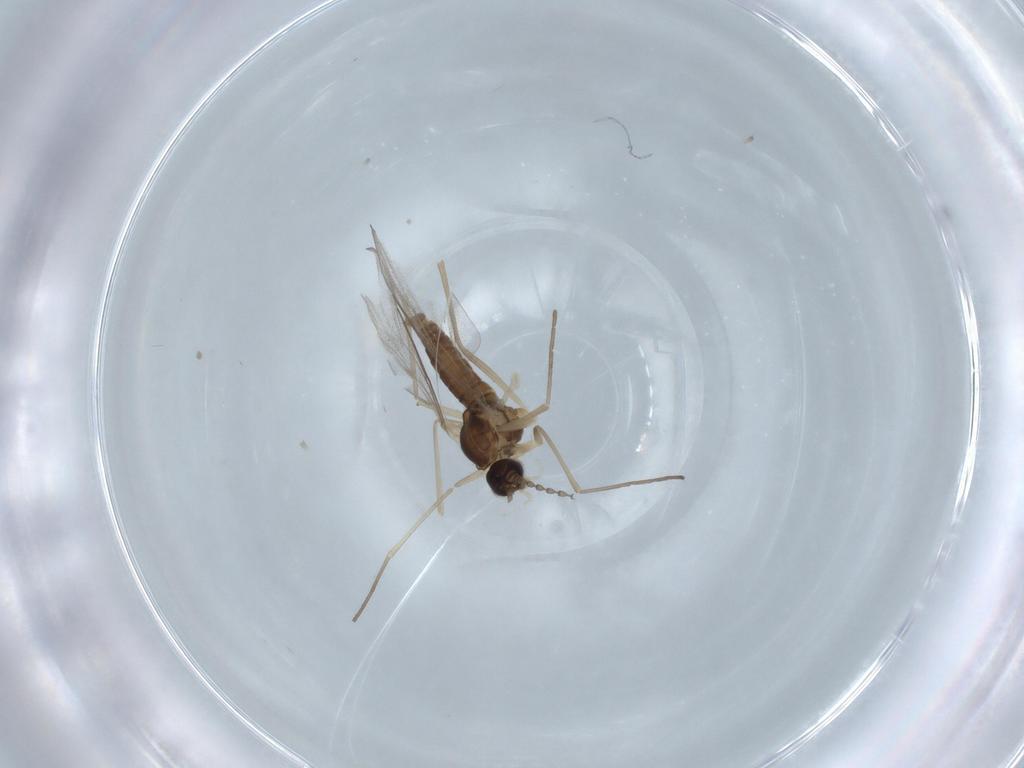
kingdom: Animalia
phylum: Arthropoda
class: Insecta
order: Diptera
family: Cecidomyiidae
